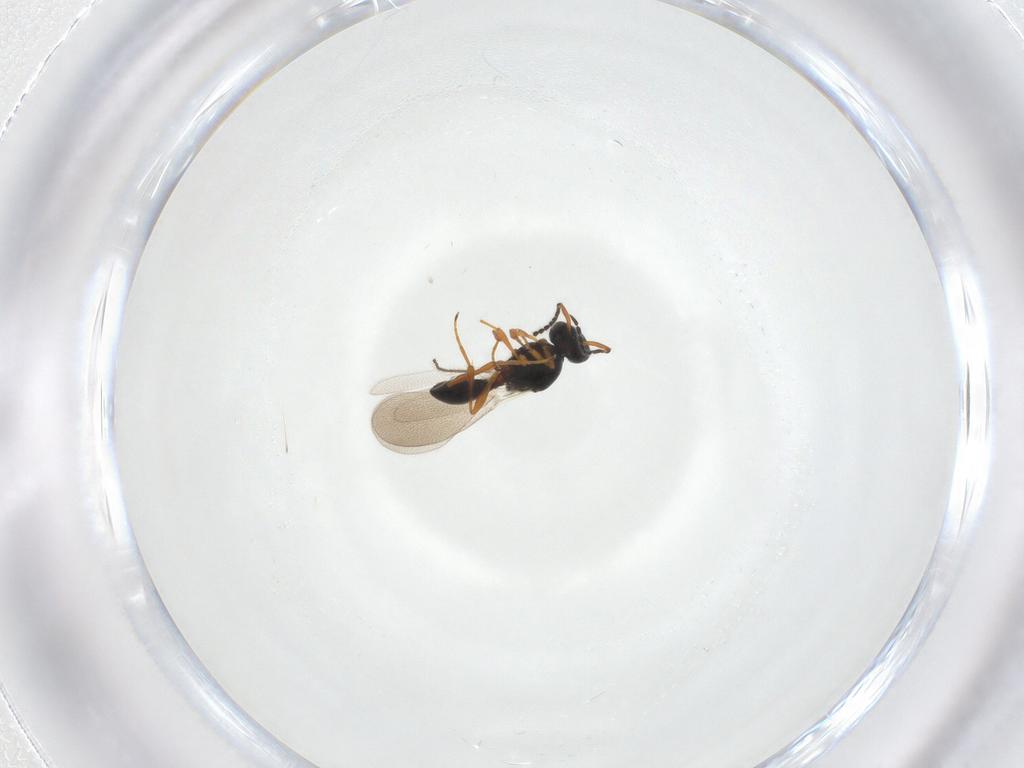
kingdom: Animalia
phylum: Arthropoda
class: Insecta
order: Hymenoptera
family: Platygastridae
